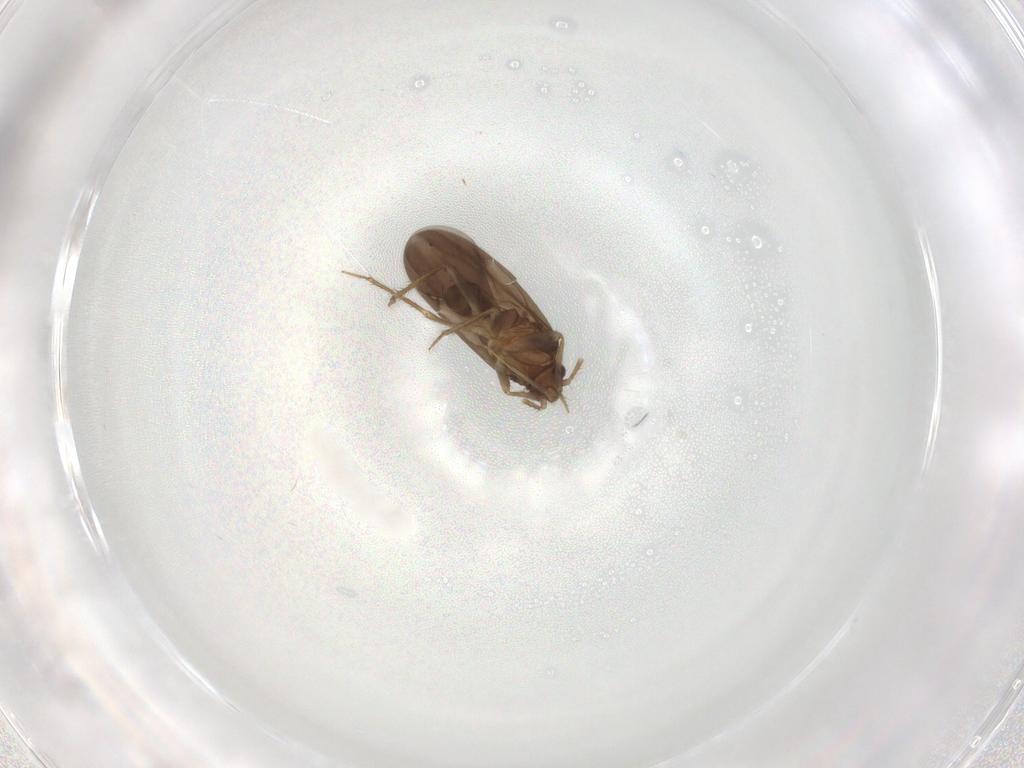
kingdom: Animalia
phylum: Arthropoda
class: Insecta
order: Hemiptera
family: Ceratocombidae
